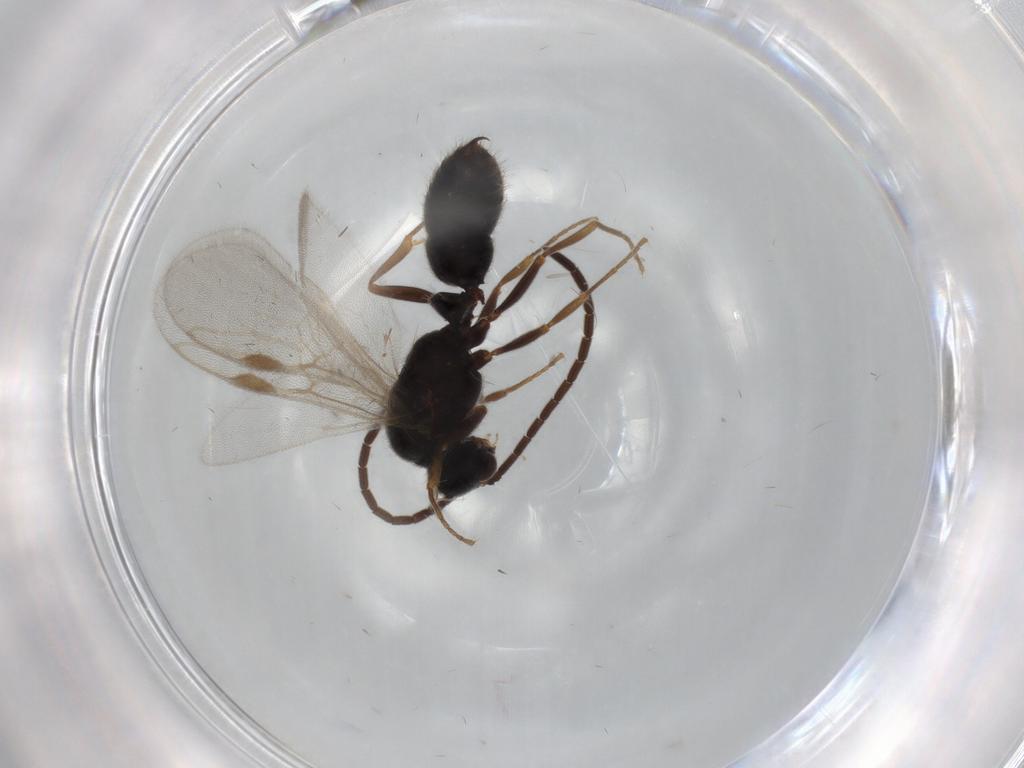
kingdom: Animalia
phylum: Arthropoda
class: Insecta
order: Hymenoptera
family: Formicidae
